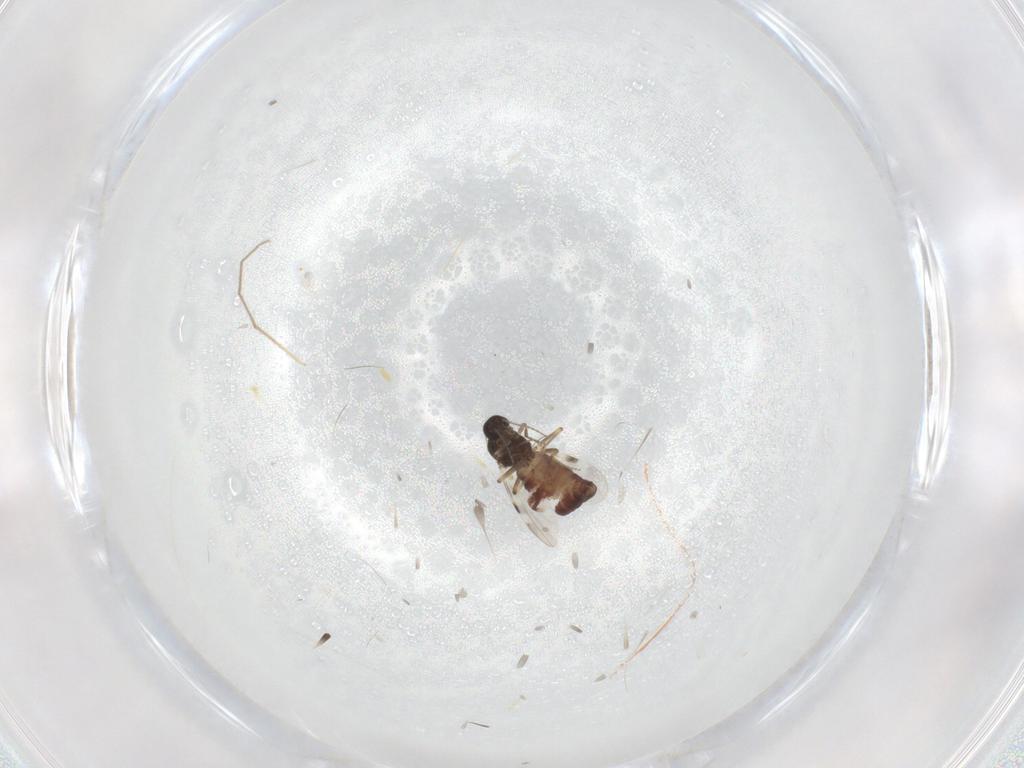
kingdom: Animalia
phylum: Arthropoda
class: Insecta
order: Diptera
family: Chironomidae
